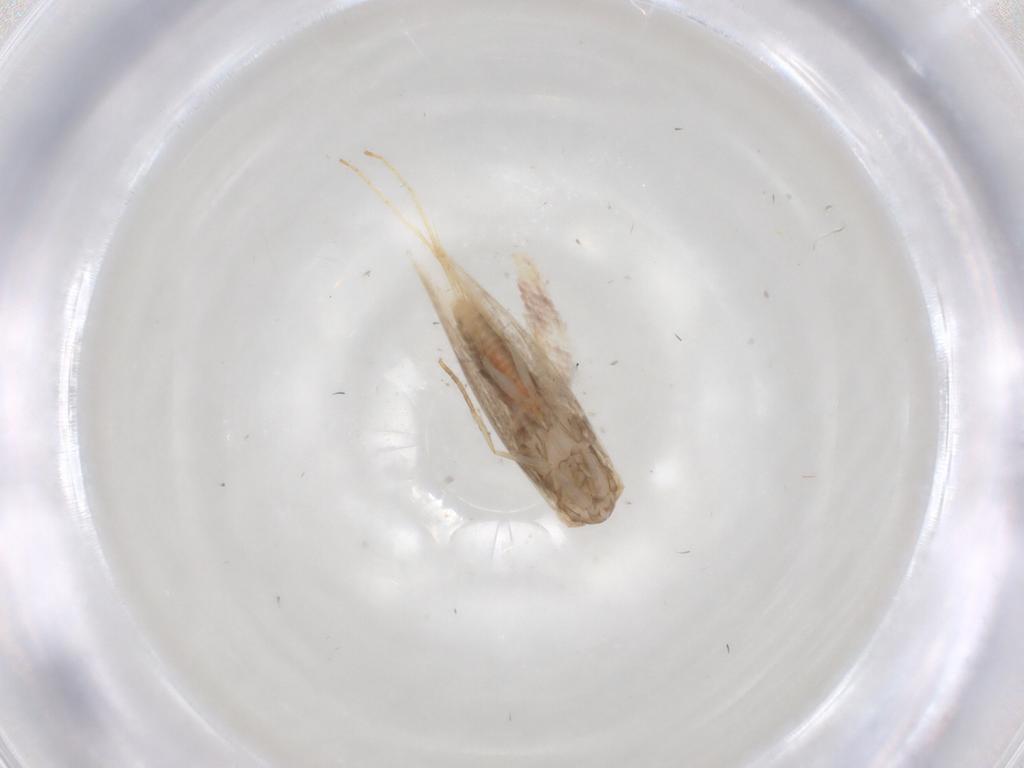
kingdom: Animalia
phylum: Arthropoda
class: Insecta
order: Lepidoptera
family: Gracillariidae
